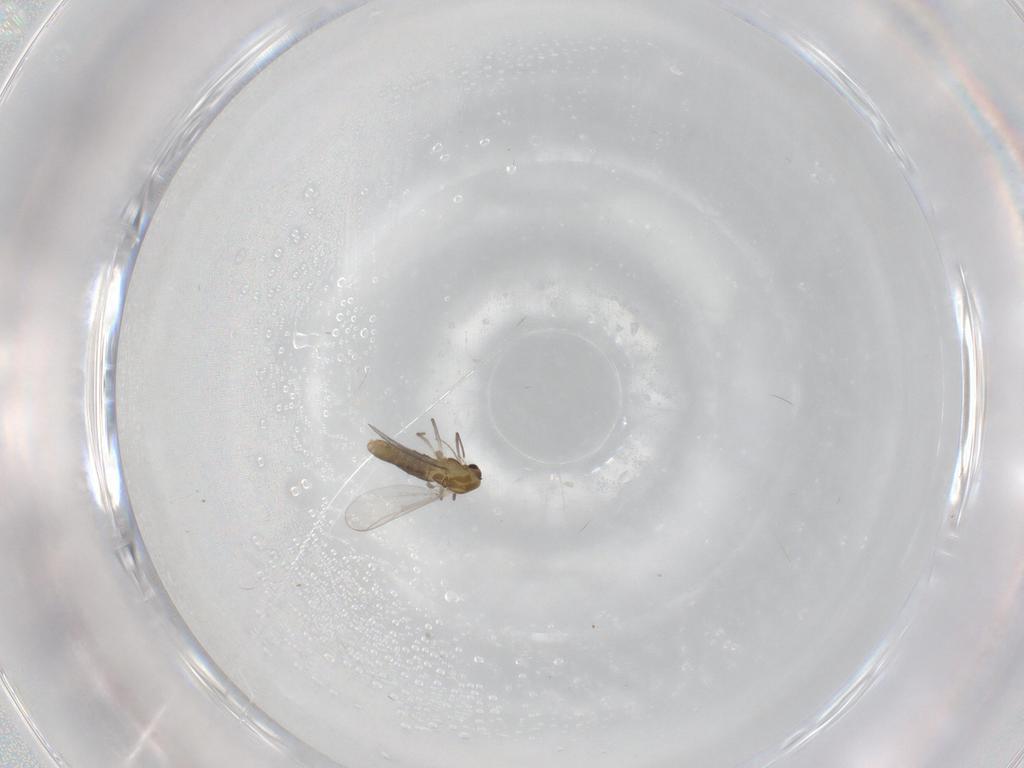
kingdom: Animalia
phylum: Arthropoda
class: Insecta
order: Diptera
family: Chironomidae
